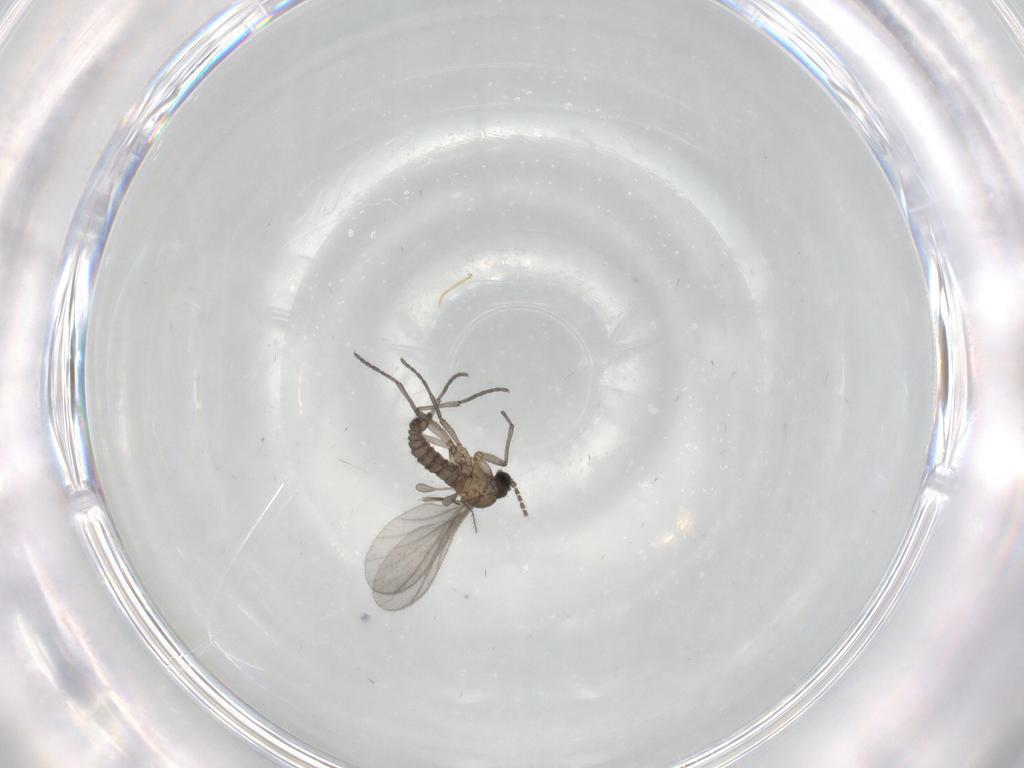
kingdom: Animalia
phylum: Arthropoda
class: Insecta
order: Diptera
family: Sciaridae
